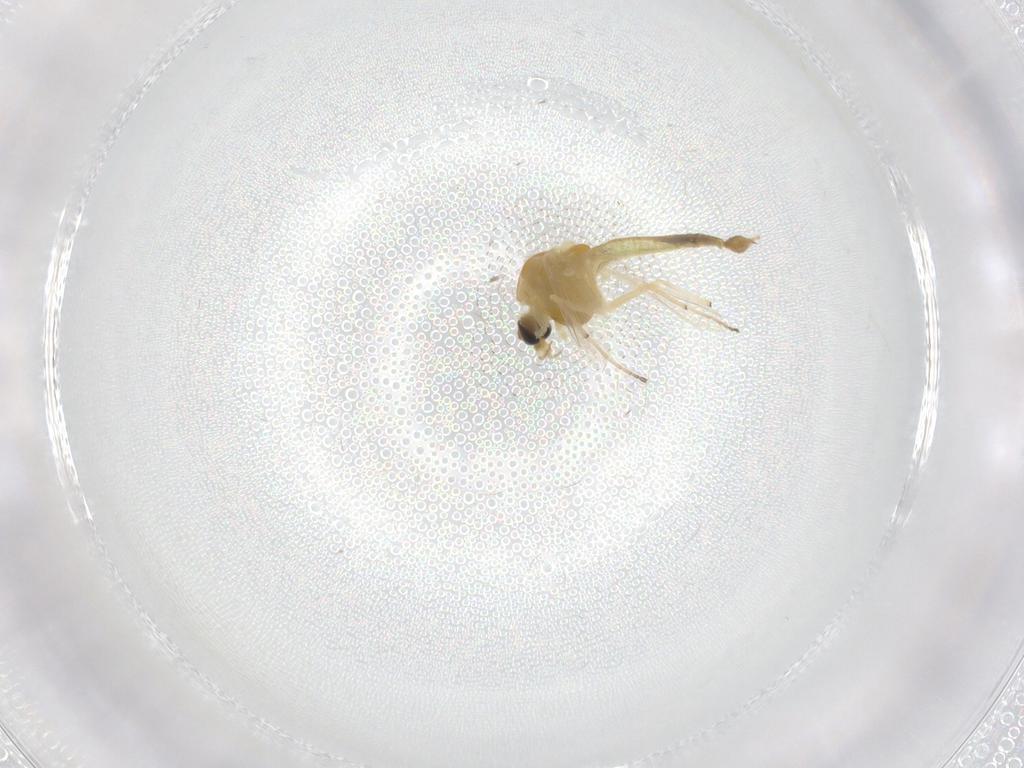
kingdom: Animalia
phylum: Arthropoda
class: Insecta
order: Diptera
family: Chironomidae
